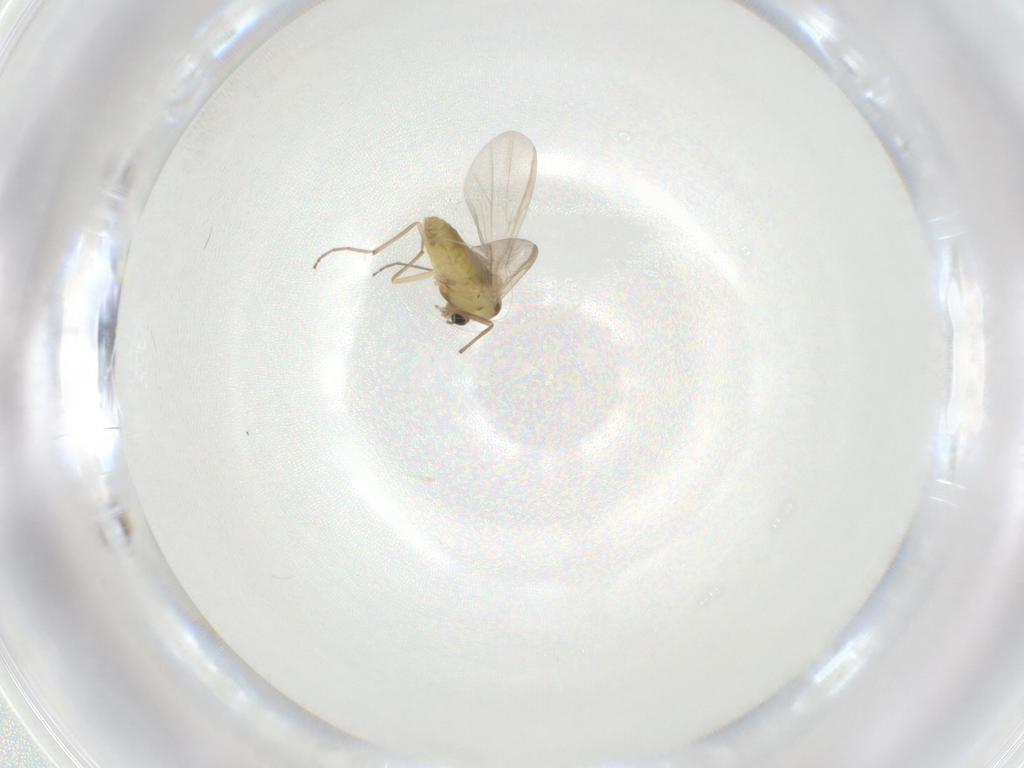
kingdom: Animalia
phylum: Arthropoda
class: Insecta
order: Diptera
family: Chironomidae
